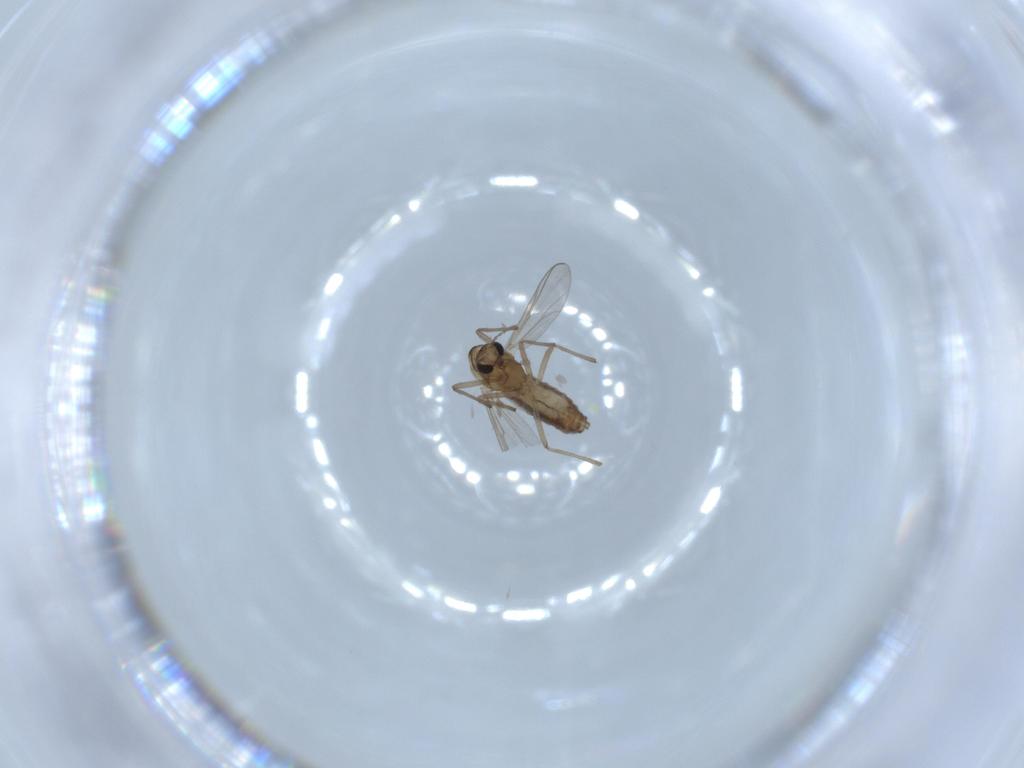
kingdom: Animalia
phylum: Arthropoda
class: Insecta
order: Diptera
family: Chironomidae
